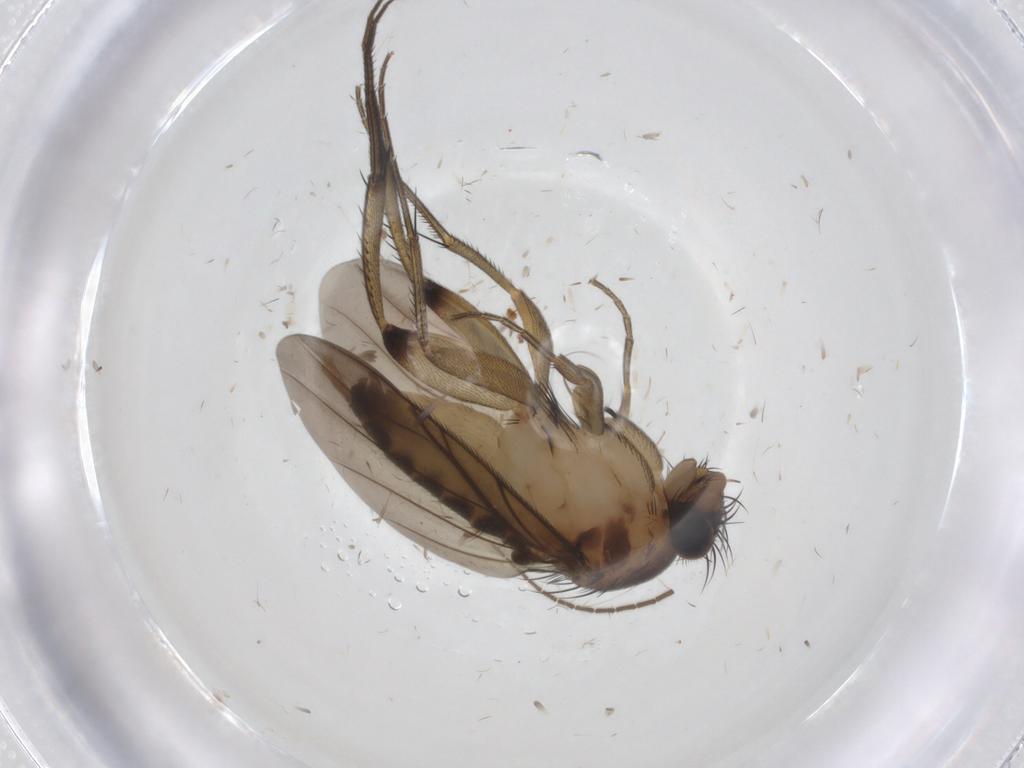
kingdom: Animalia
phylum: Arthropoda
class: Insecta
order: Diptera
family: Phoridae
